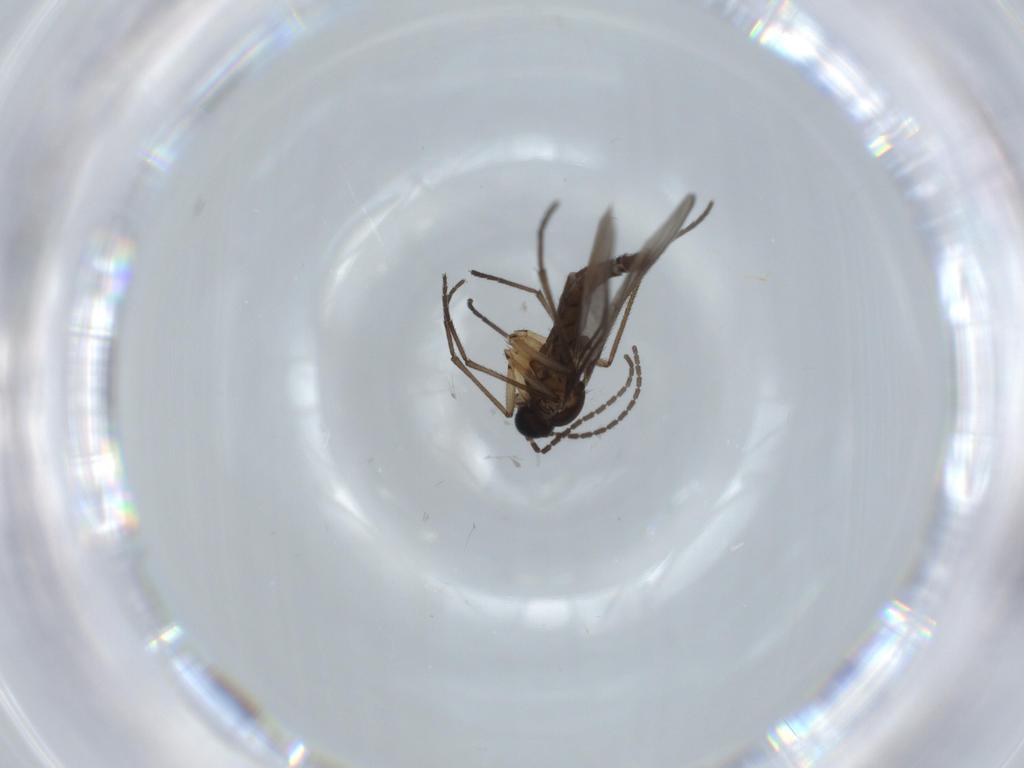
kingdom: Animalia
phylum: Arthropoda
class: Insecta
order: Diptera
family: Sciaridae
